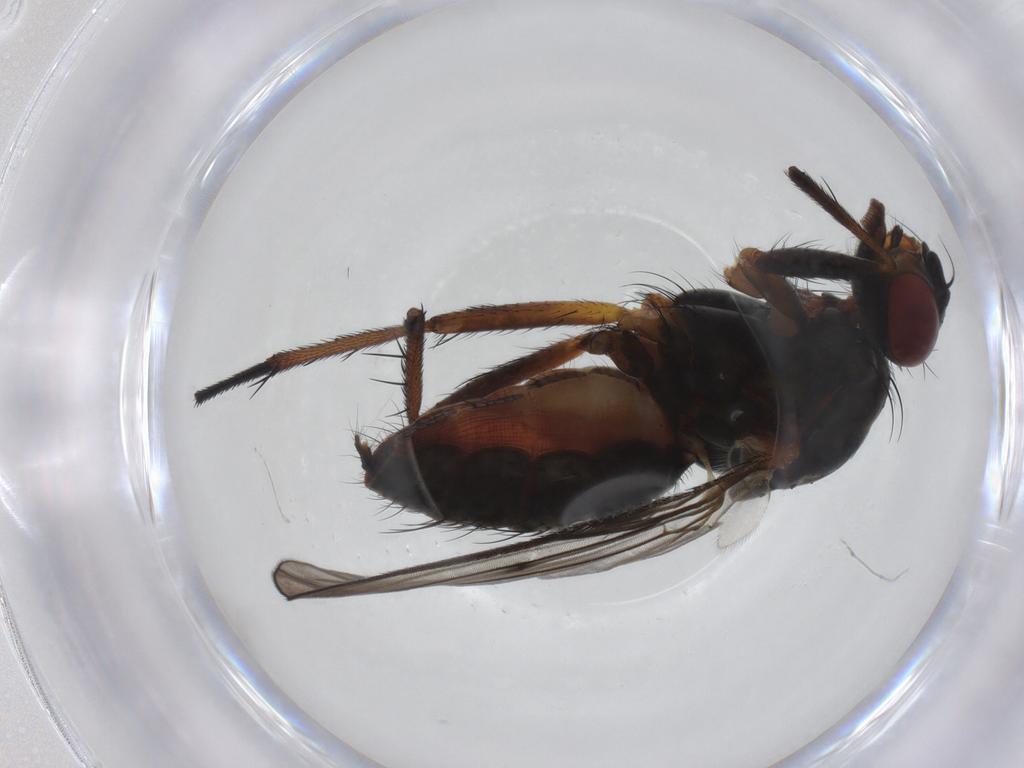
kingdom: Animalia
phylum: Arthropoda
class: Insecta
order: Diptera
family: Anthomyiidae
